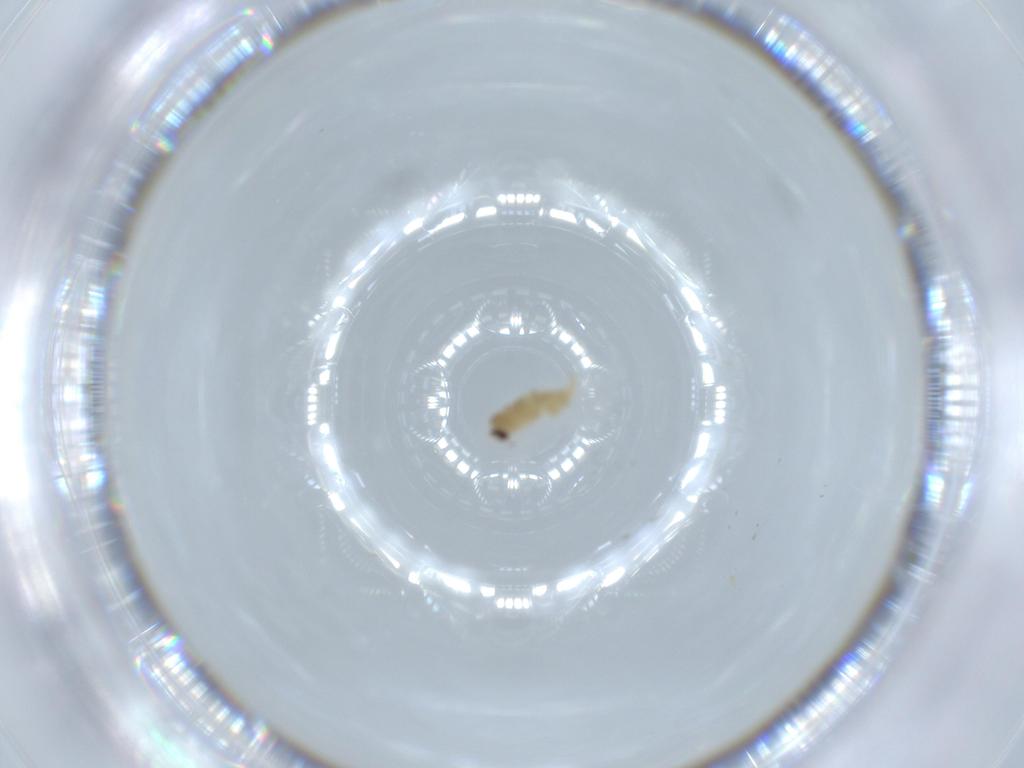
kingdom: Animalia
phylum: Arthropoda
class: Insecta
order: Diptera
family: Cecidomyiidae
